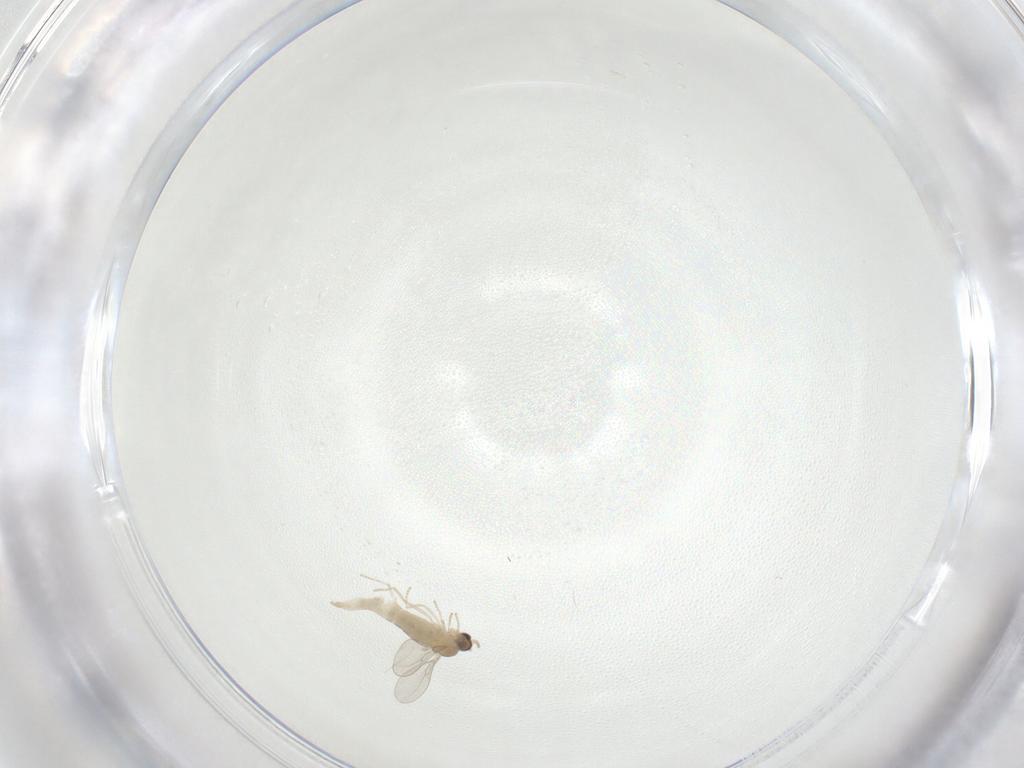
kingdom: Animalia
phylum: Arthropoda
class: Insecta
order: Diptera
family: Cecidomyiidae
